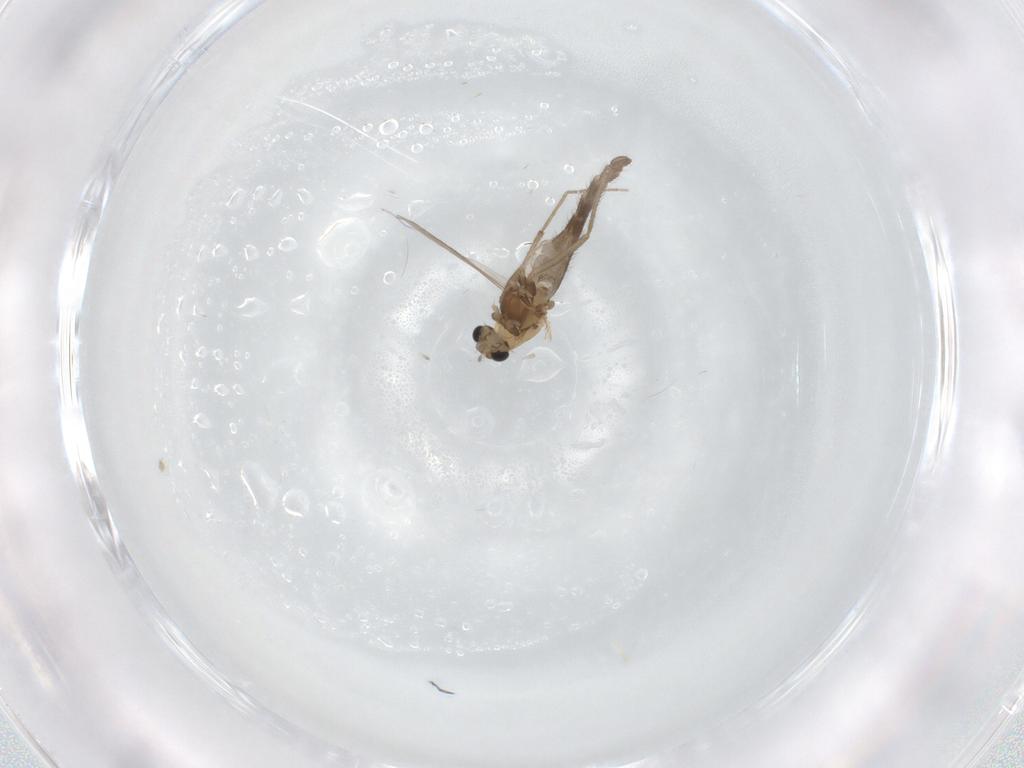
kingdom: Animalia
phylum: Arthropoda
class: Insecta
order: Diptera
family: Chironomidae
